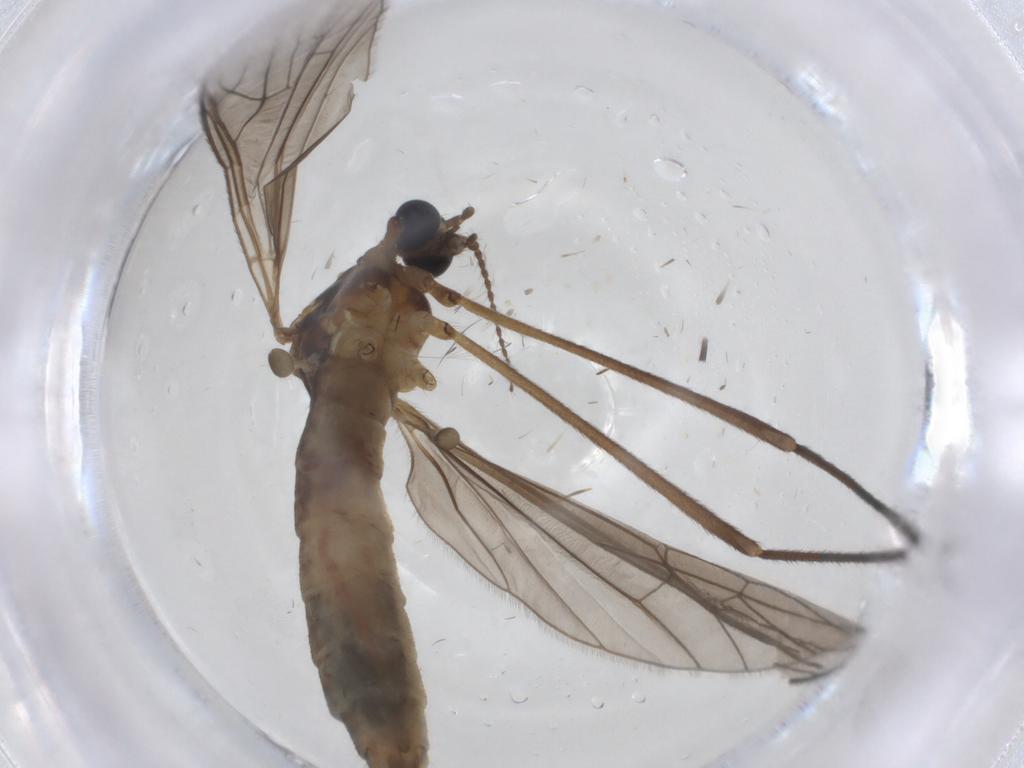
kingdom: Animalia
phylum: Arthropoda
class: Insecta
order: Diptera
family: Limoniidae
